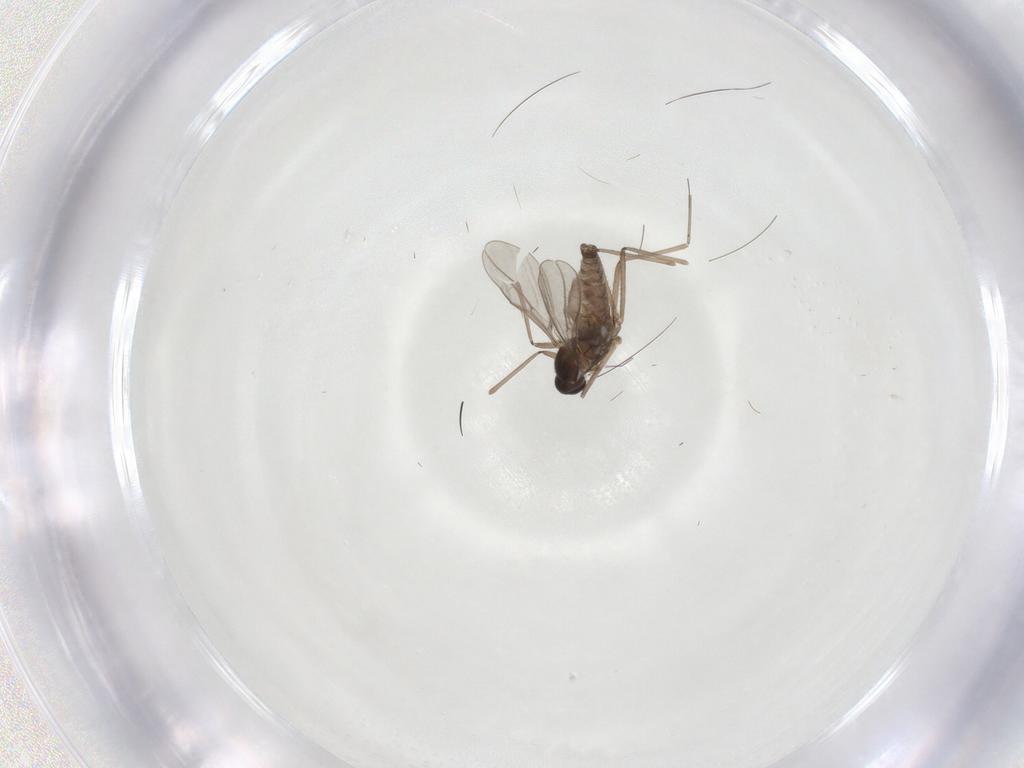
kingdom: Animalia
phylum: Arthropoda
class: Insecta
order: Diptera
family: Cecidomyiidae
